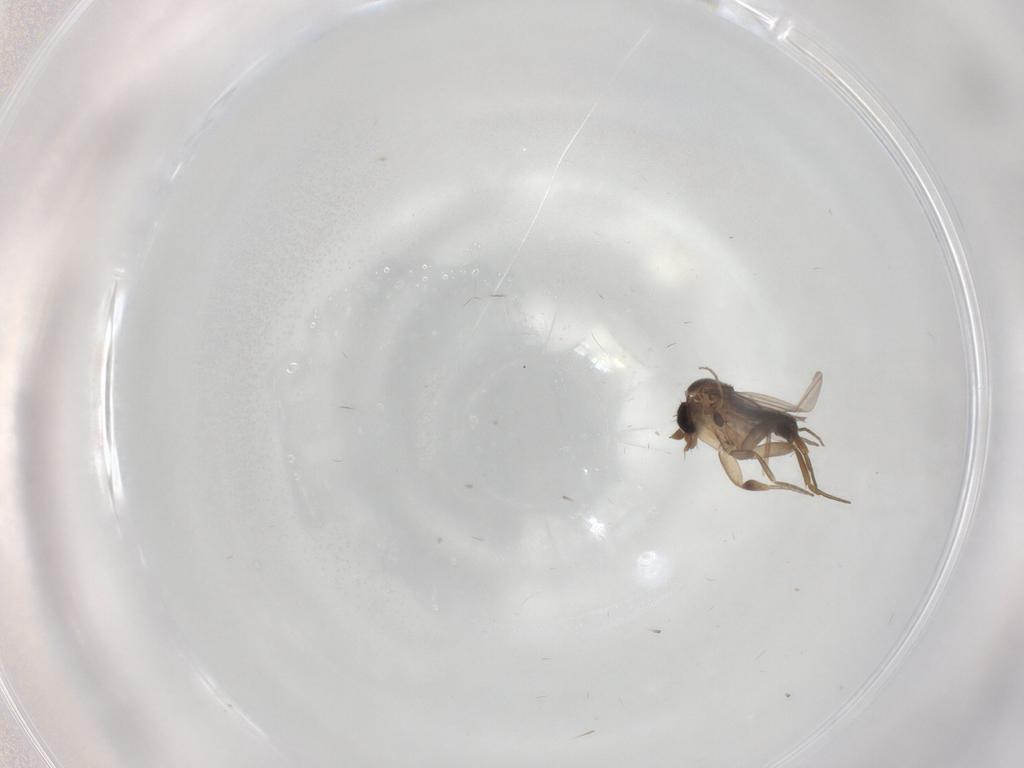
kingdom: Animalia
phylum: Arthropoda
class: Insecta
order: Diptera
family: Phoridae
